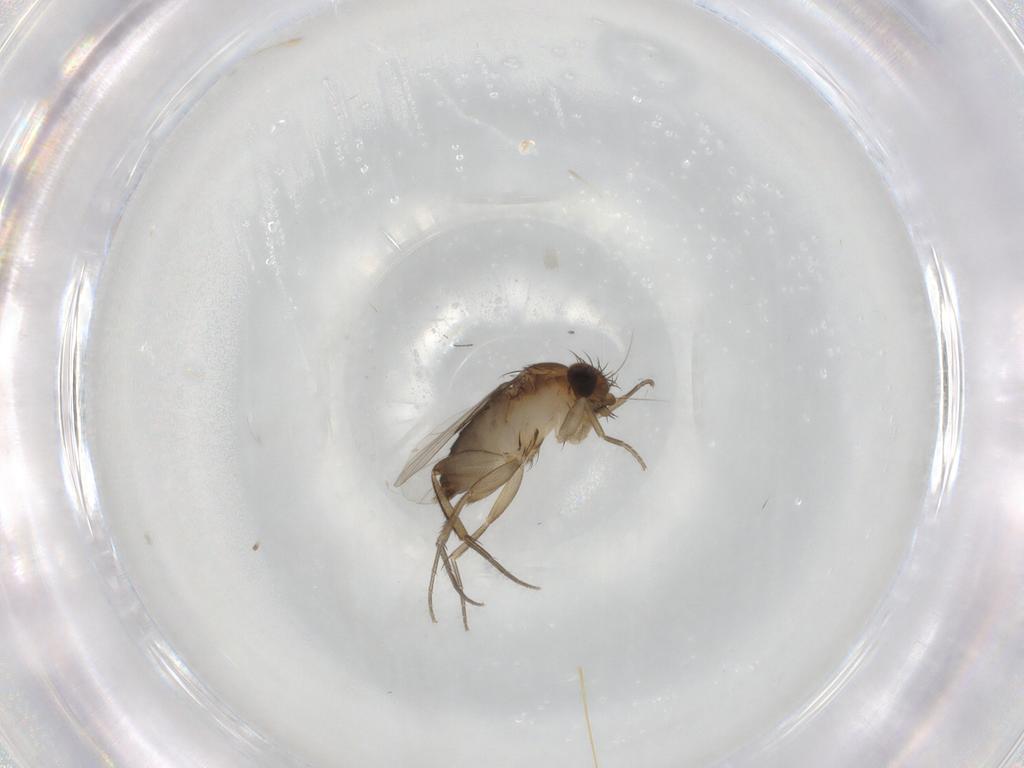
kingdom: Animalia
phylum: Arthropoda
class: Insecta
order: Diptera
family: Phoridae
